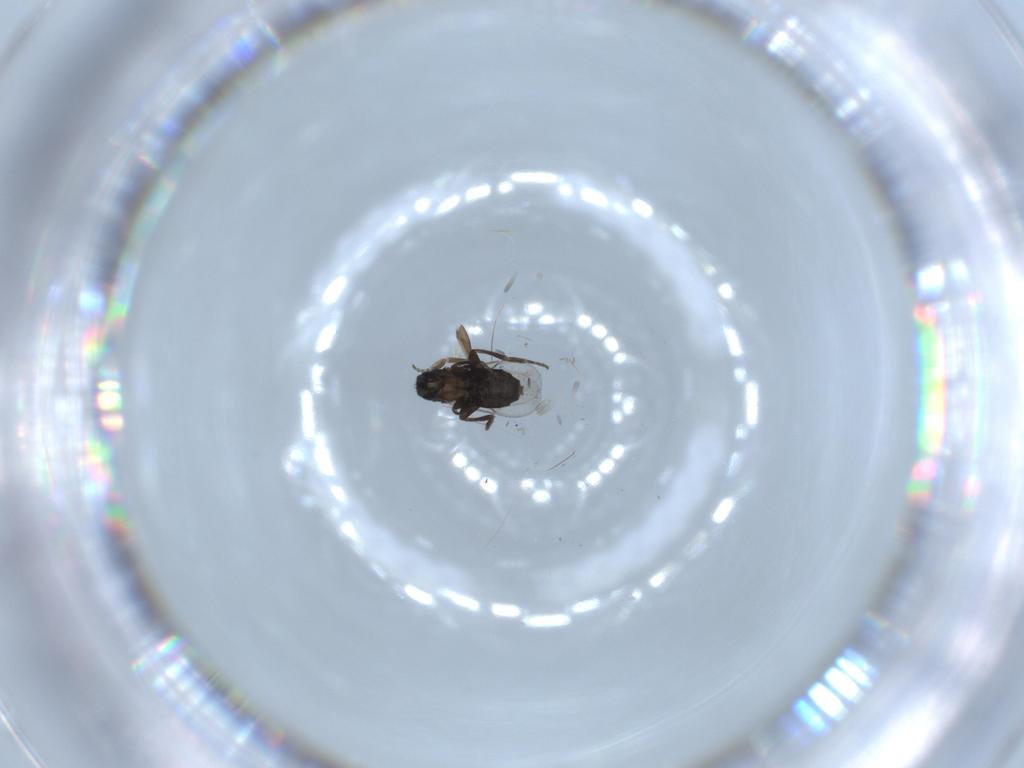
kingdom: Animalia
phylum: Arthropoda
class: Insecta
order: Diptera
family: Phoridae
